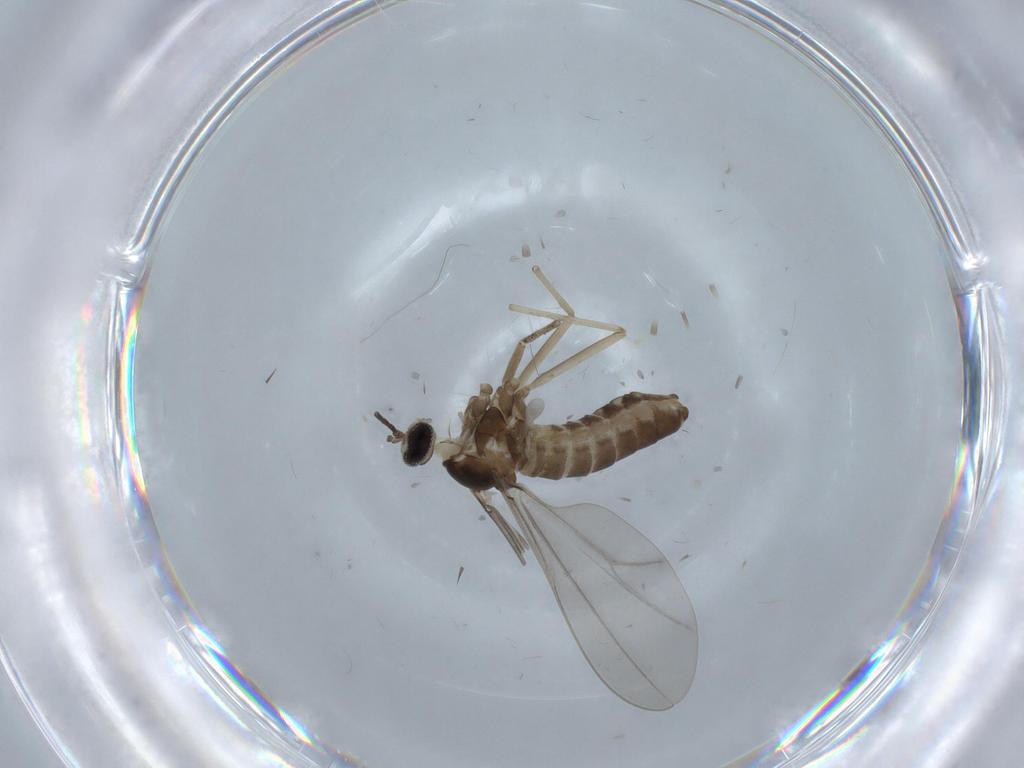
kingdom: Animalia
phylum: Arthropoda
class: Insecta
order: Diptera
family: Cecidomyiidae
